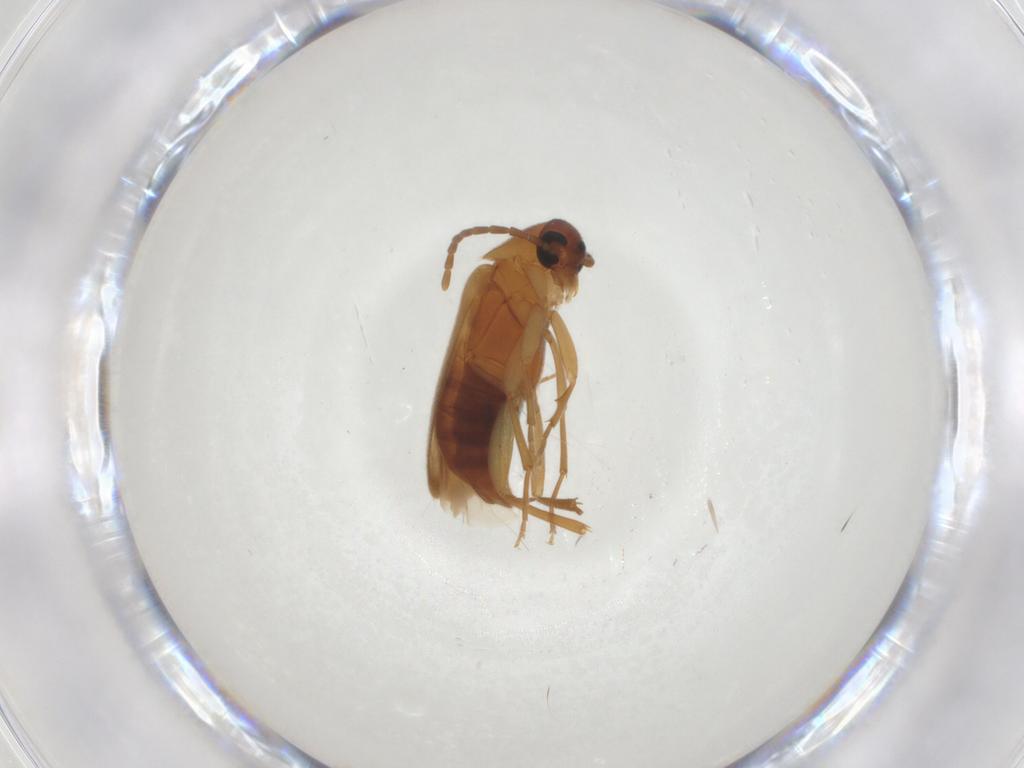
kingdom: Animalia
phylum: Arthropoda
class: Insecta
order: Coleoptera
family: Scraptiidae
